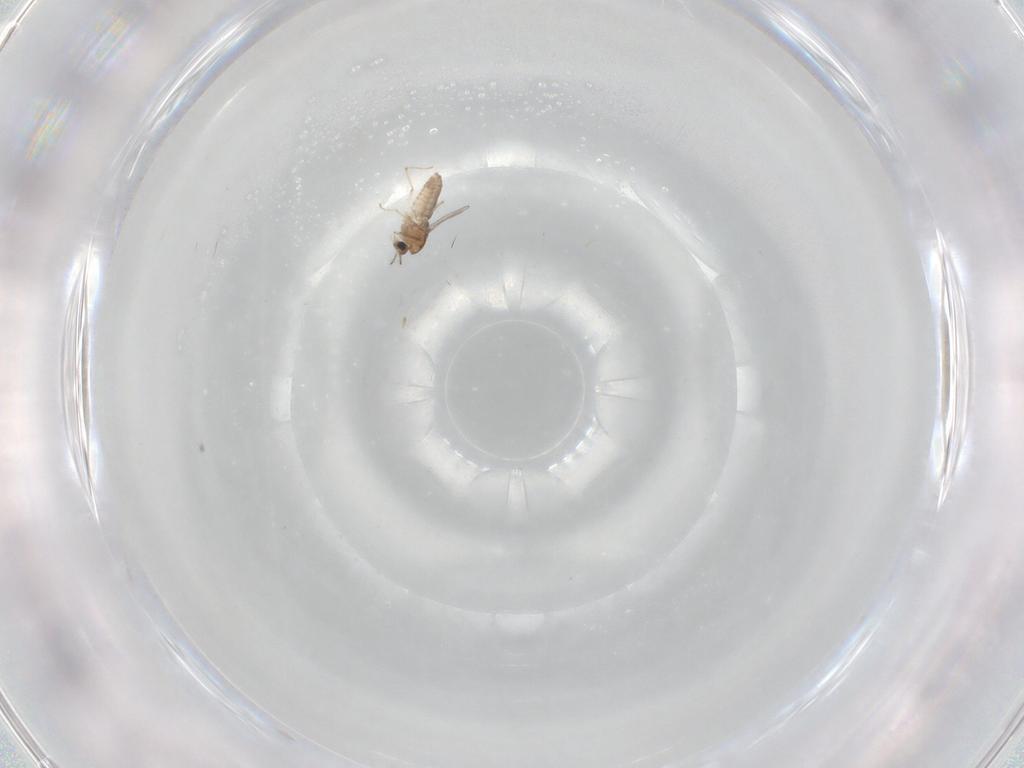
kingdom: Animalia
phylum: Arthropoda
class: Insecta
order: Diptera
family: Chironomidae
